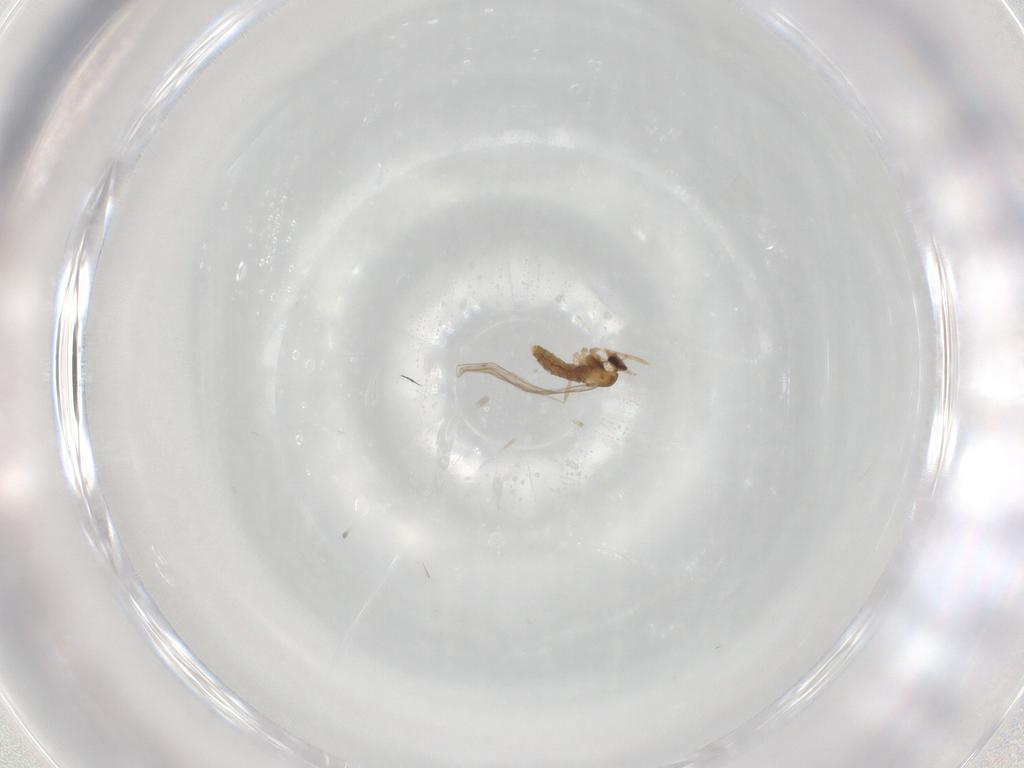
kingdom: Animalia
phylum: Arthropoda
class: Insecta
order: Diptera
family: Cecidomyiidae
